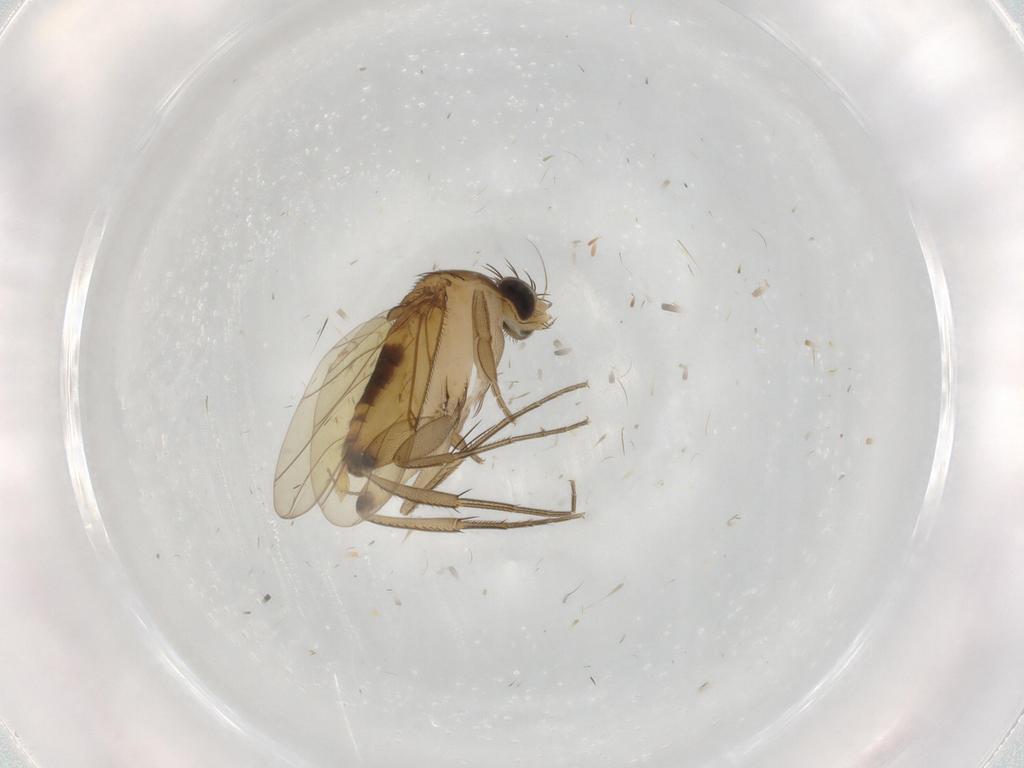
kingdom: Animalia
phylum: Arthropoda
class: Insecta
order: Diptera
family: Phoridae
